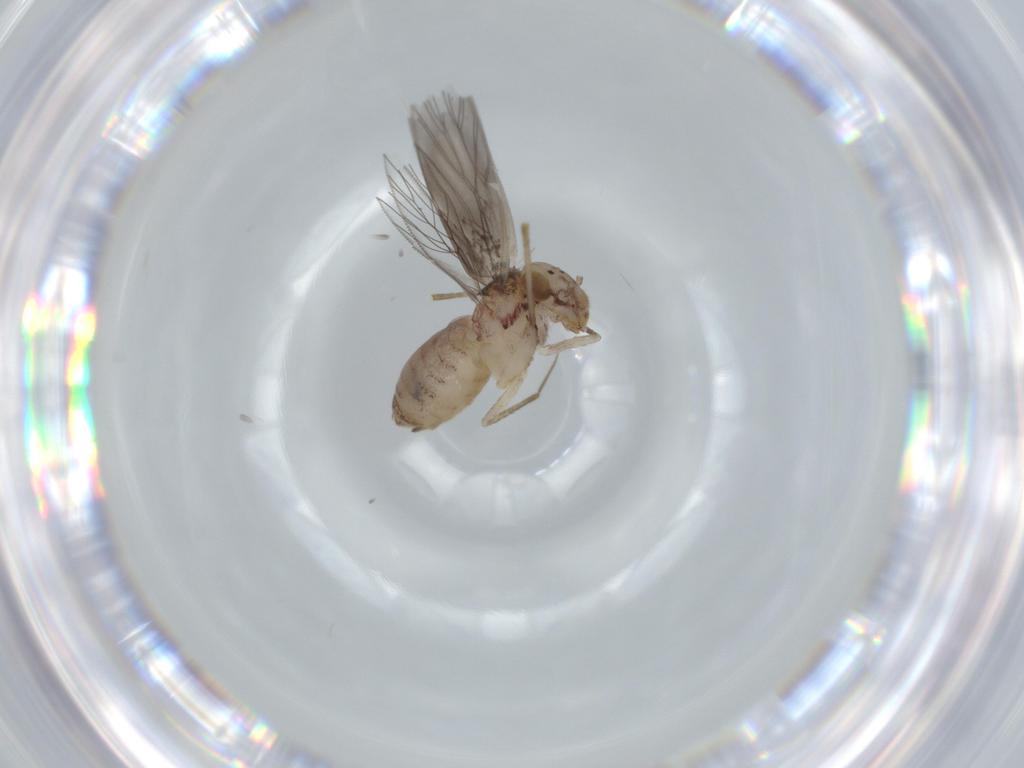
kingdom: Animalia
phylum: Arthropoda
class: Insecta
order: Psocodea
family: Lepidopsocidae
